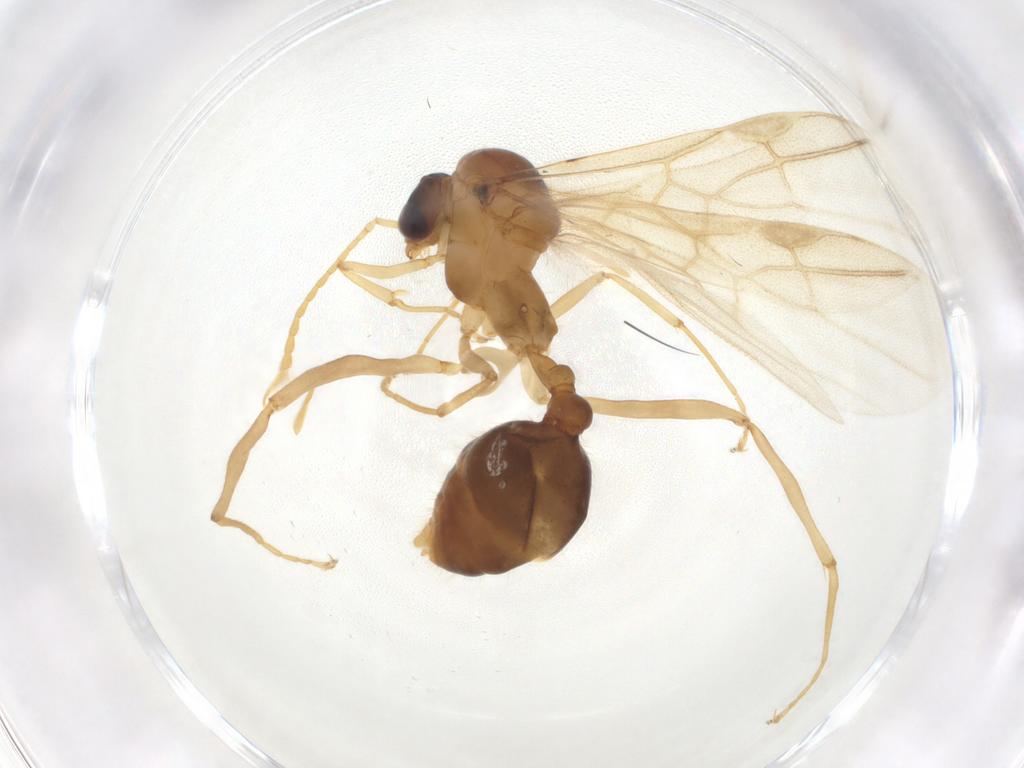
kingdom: Animalia
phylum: Arthropoda
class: Insecta
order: Hymenoptera
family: Formicidae
